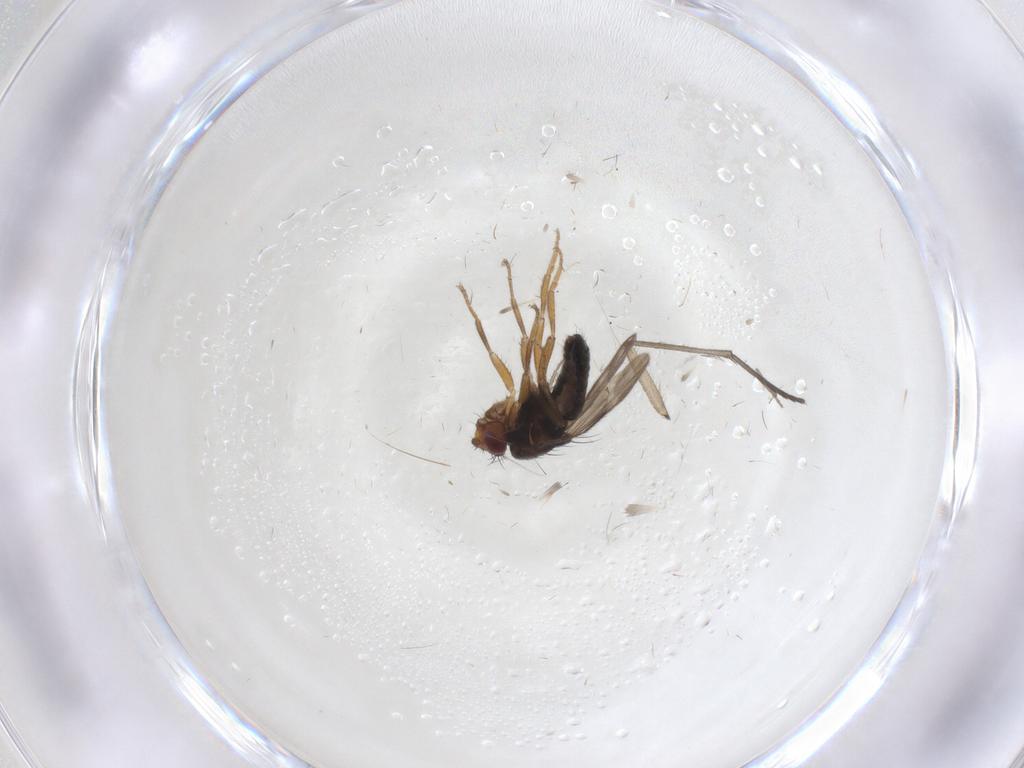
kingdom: Animalia
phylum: Arthropoda
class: Insecta
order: Diptera
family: Sphaeroceridae
